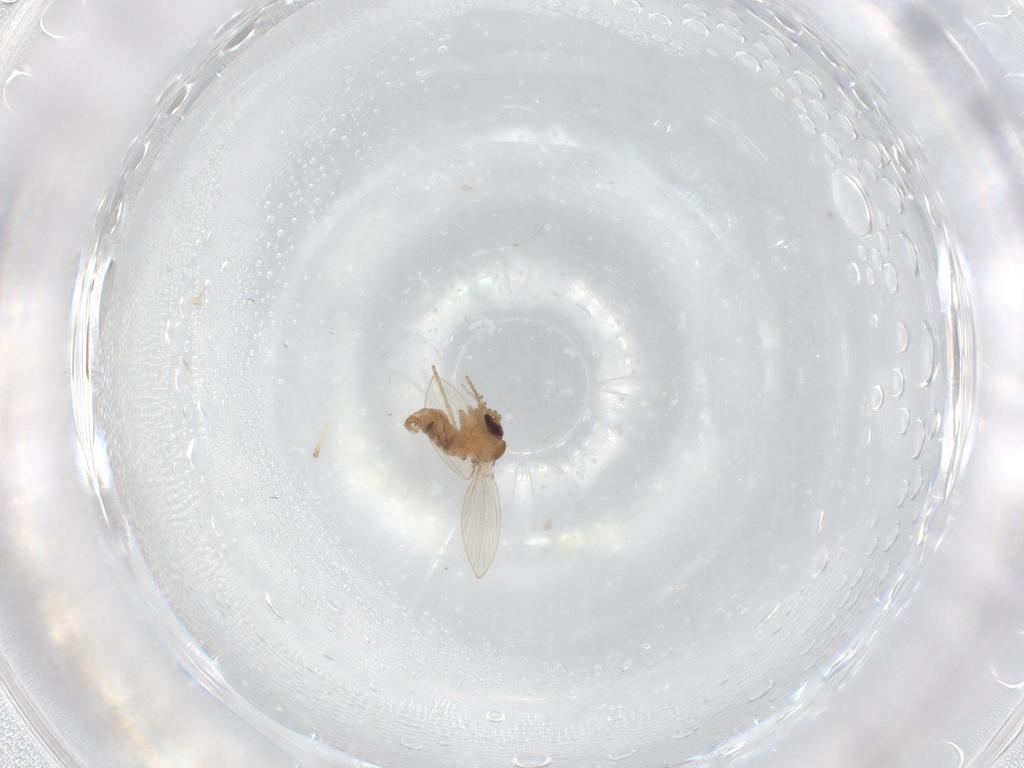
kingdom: Animalia
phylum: Arthropoda
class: Insecta
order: Diptera
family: Psychodidae
